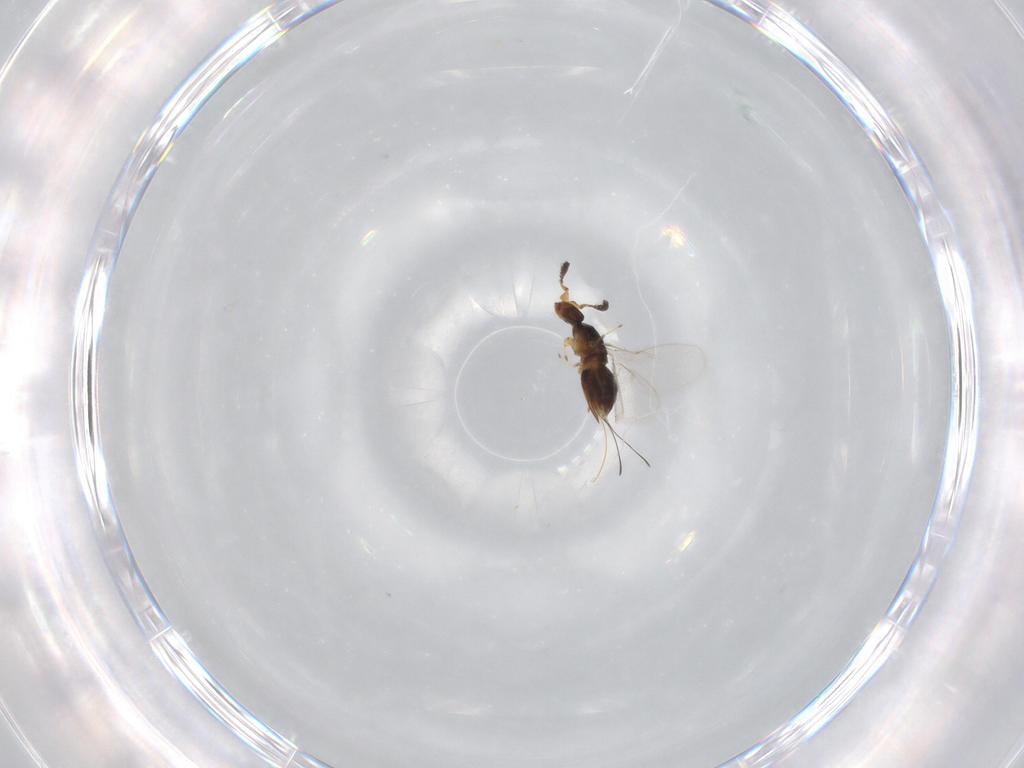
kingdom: Animalia
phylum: Arthropoda
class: Insecta
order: Hymenoptera
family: Agaonidae
